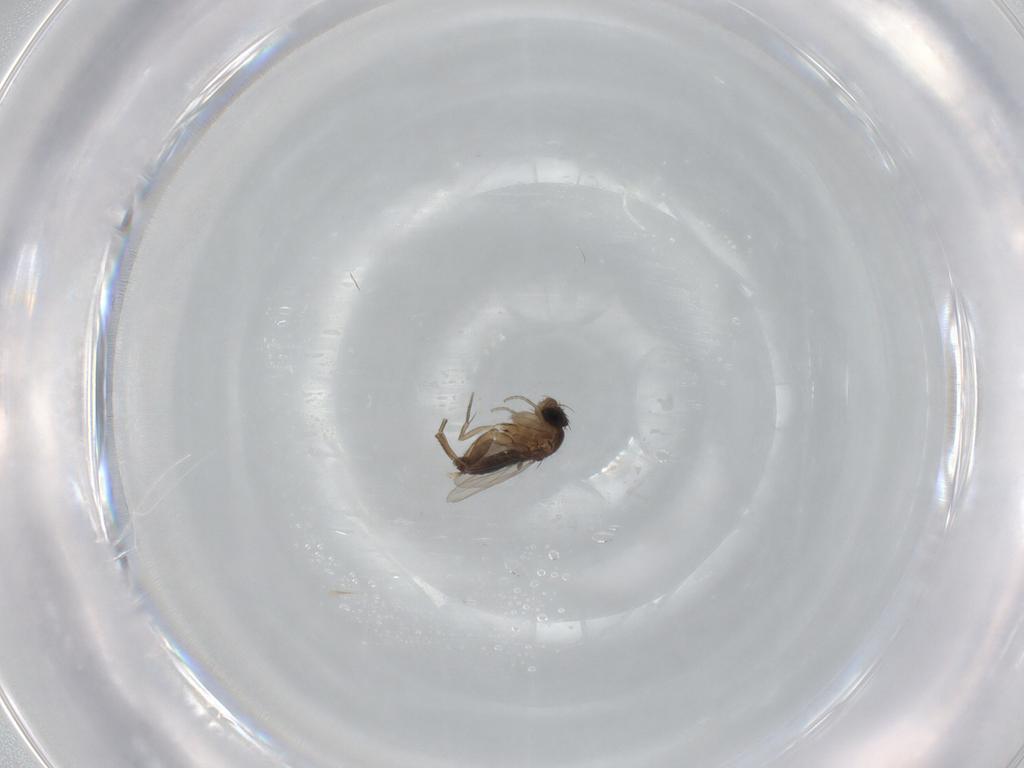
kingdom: Animalia
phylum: Arthropoda
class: Insecta
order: Diptera
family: Phoridae
